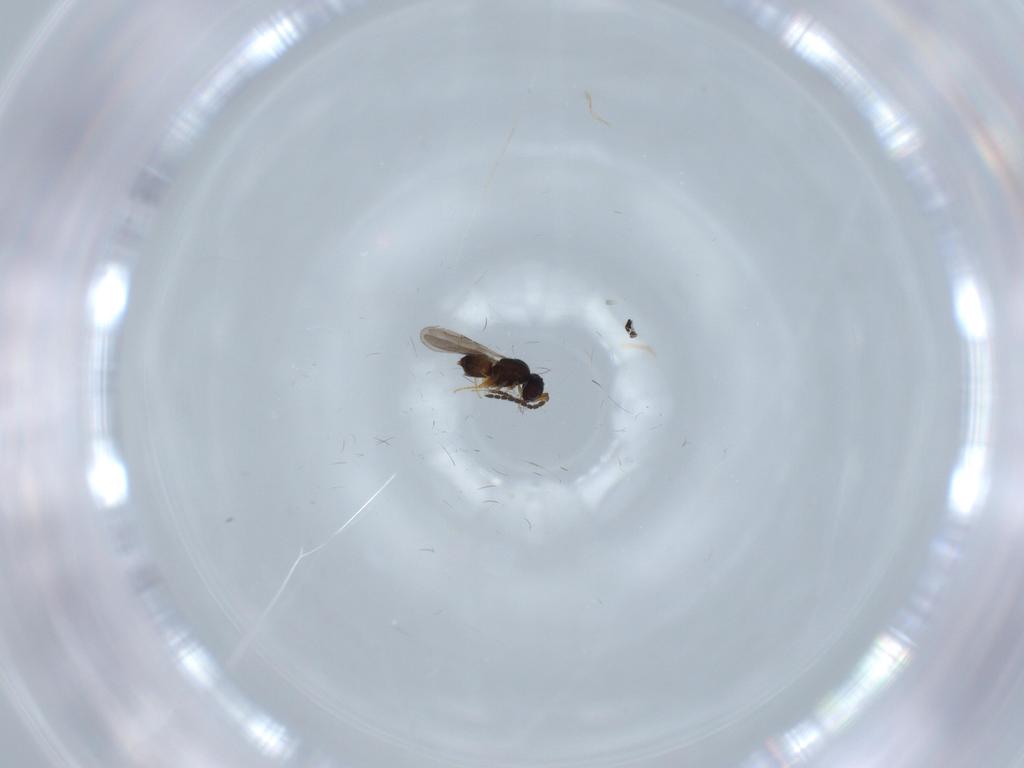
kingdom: Animalia
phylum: Arthropoda
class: Insecta
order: Hymenoptera
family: Ceraphronidae
